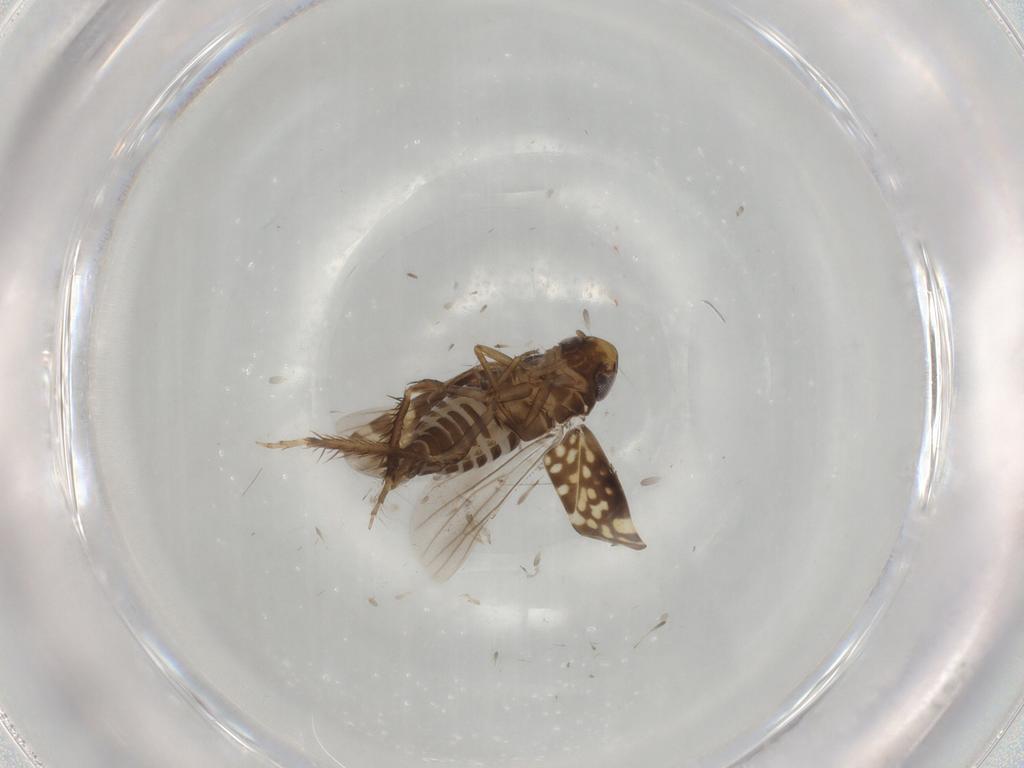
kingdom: Animalia
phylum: Arthropoda
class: Insecta
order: Hemiptera
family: Cicadellidae
